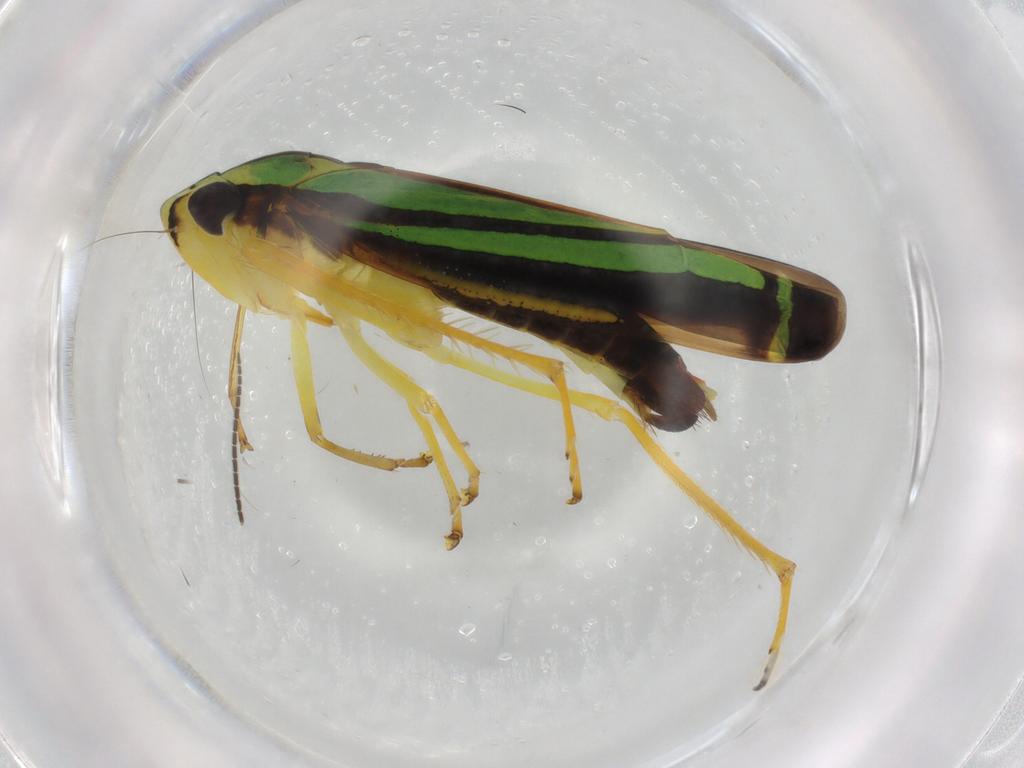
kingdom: Animalia
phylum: Arthropoda
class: Insecta
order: Hemiptera
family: Cicadellidae
